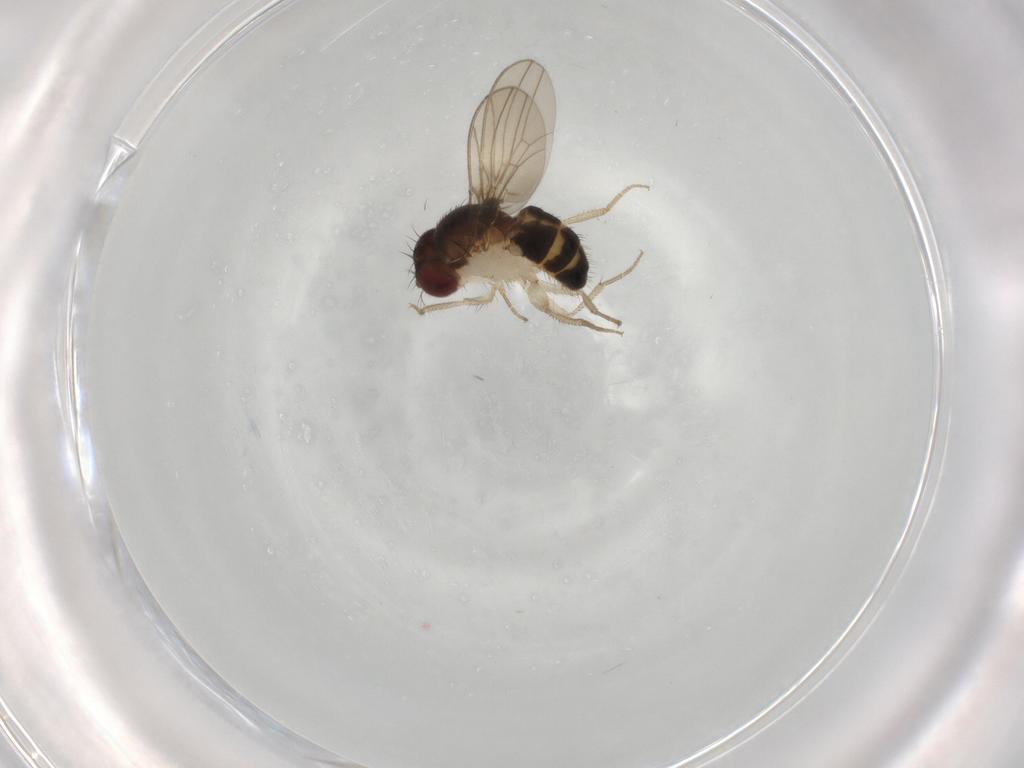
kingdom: Animalia
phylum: Arthropoda
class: Insecta
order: Diptera
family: Drosophilidae
